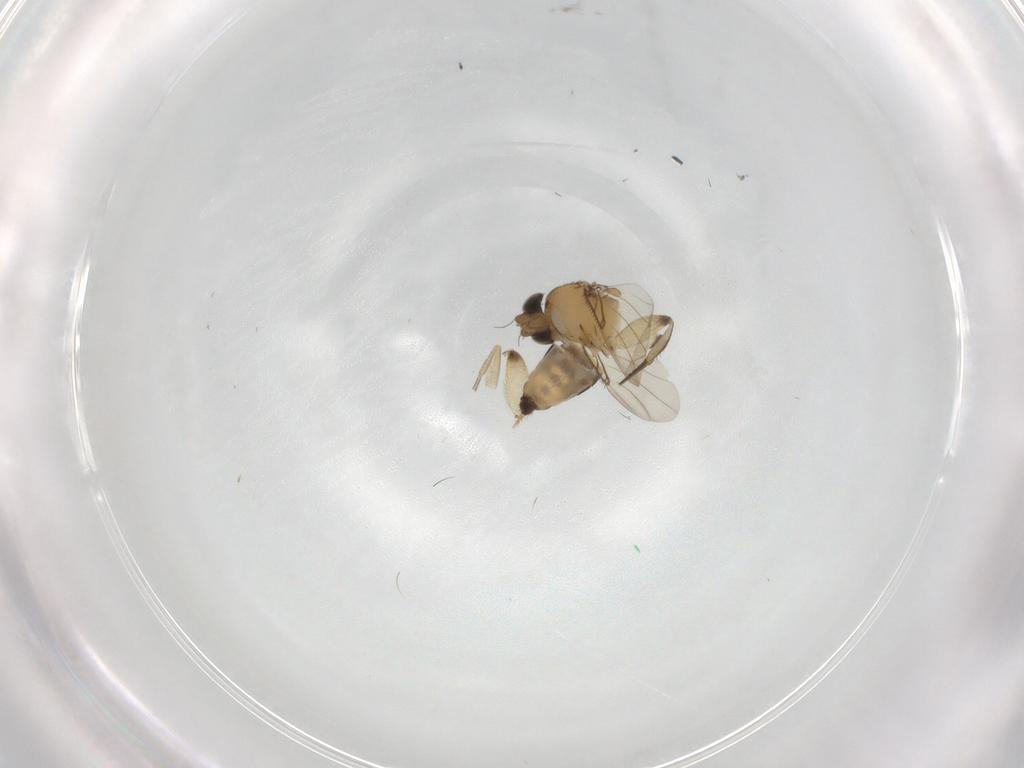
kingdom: Animalia
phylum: Arthropoda
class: Insecta
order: Diptera
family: Phoridae
